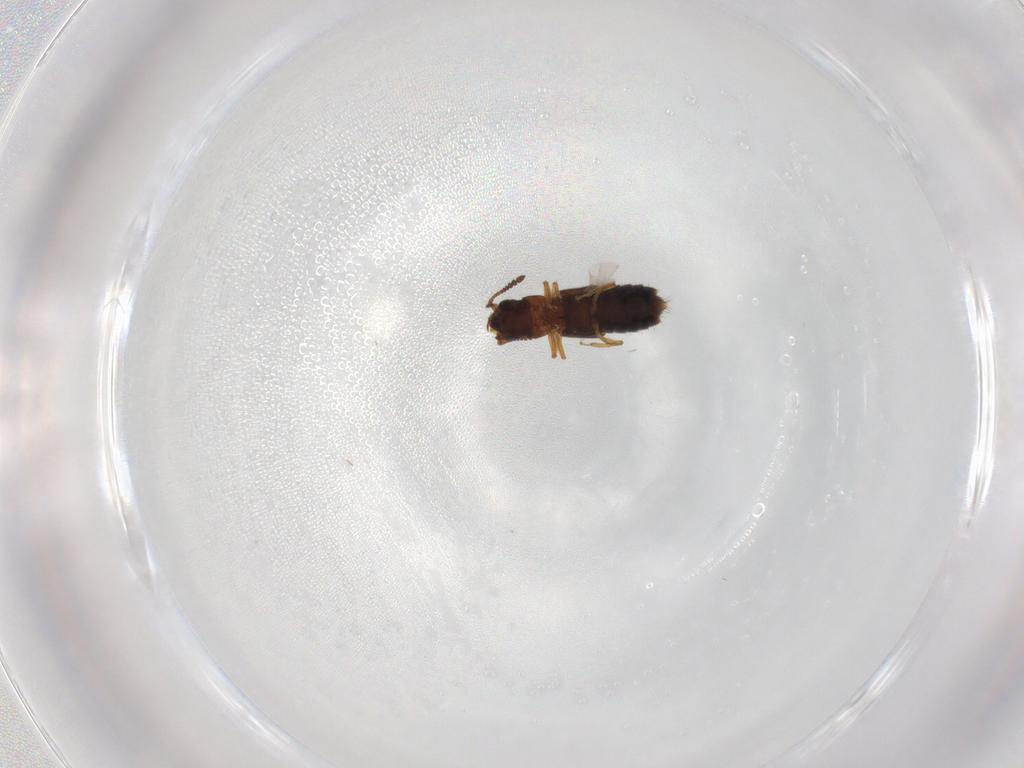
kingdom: Animalia
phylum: Arthropoda
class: Insecta
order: Coleoptera
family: Staphylinidae
